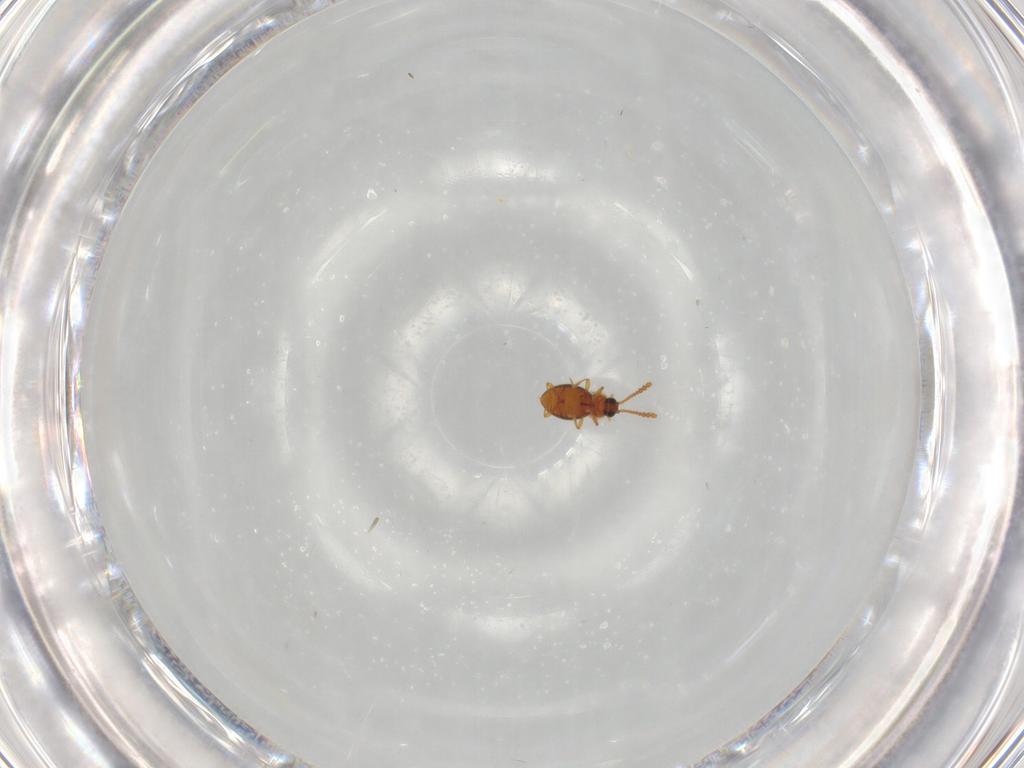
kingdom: Animalia
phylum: Arthropoda
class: Insecta
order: Coleoptera
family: Staphylinidae
